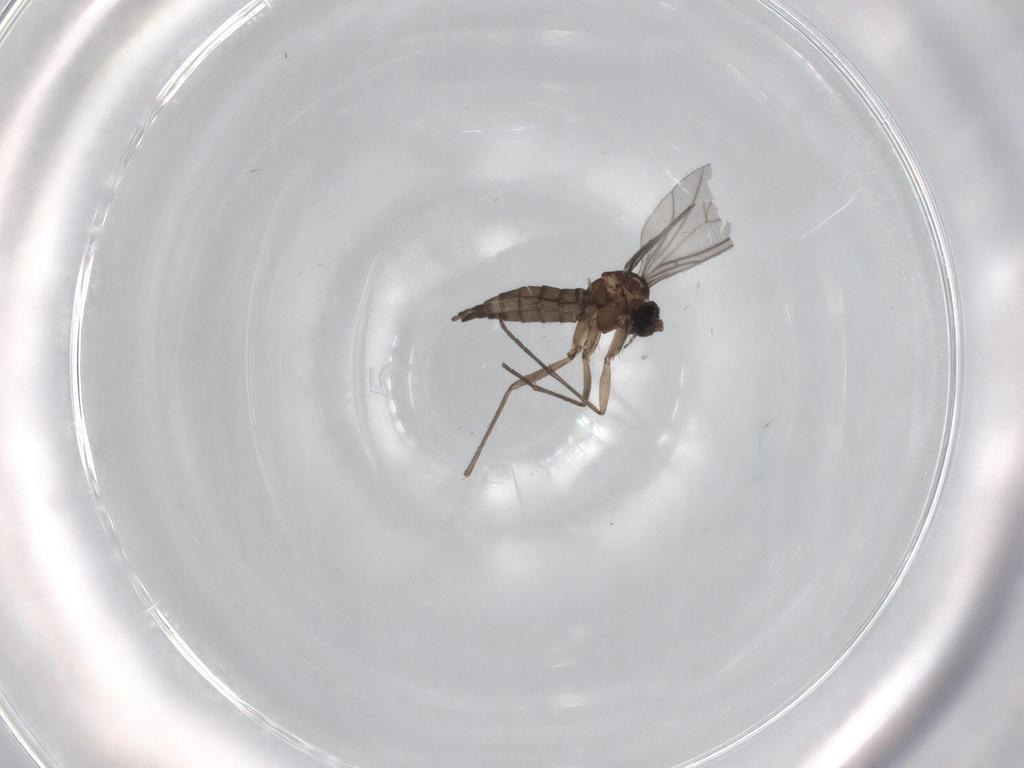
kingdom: Animalia
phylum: Arthropoda
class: Insecta
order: Diptera
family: Sciaridae
